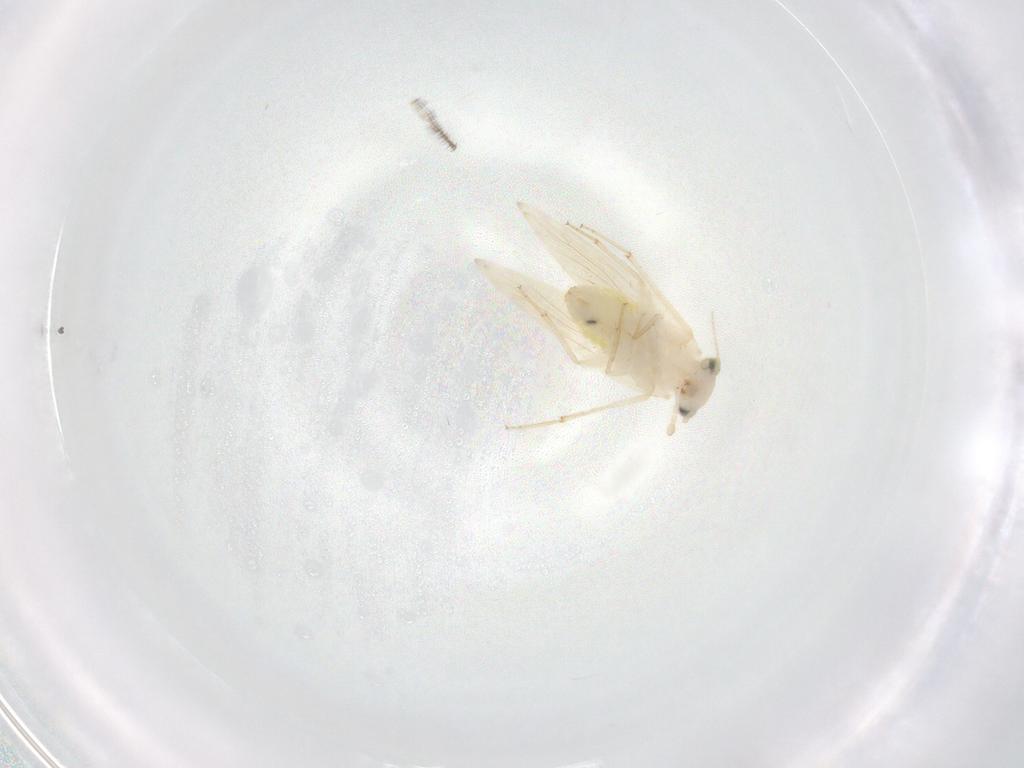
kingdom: Animalia
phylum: Arthropoda
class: Insecta
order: Psocodea
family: Lepidopsocidae
